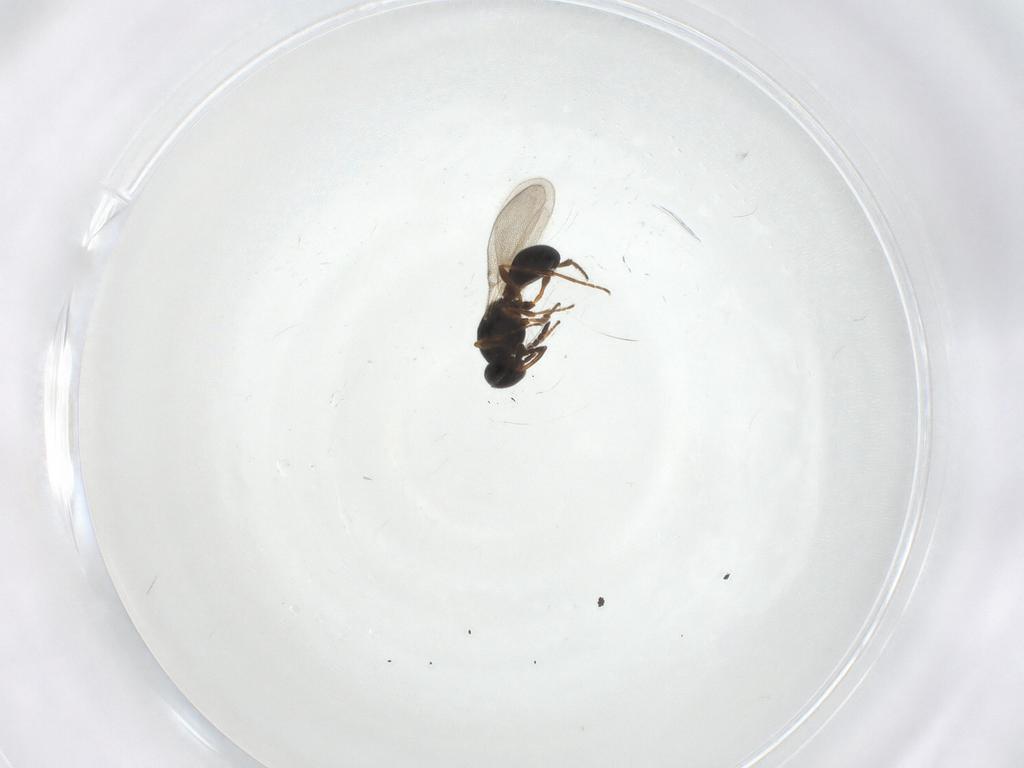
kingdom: Animalia
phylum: Arthropoda
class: Insecta
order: Hymenoptera
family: Platygastridae
